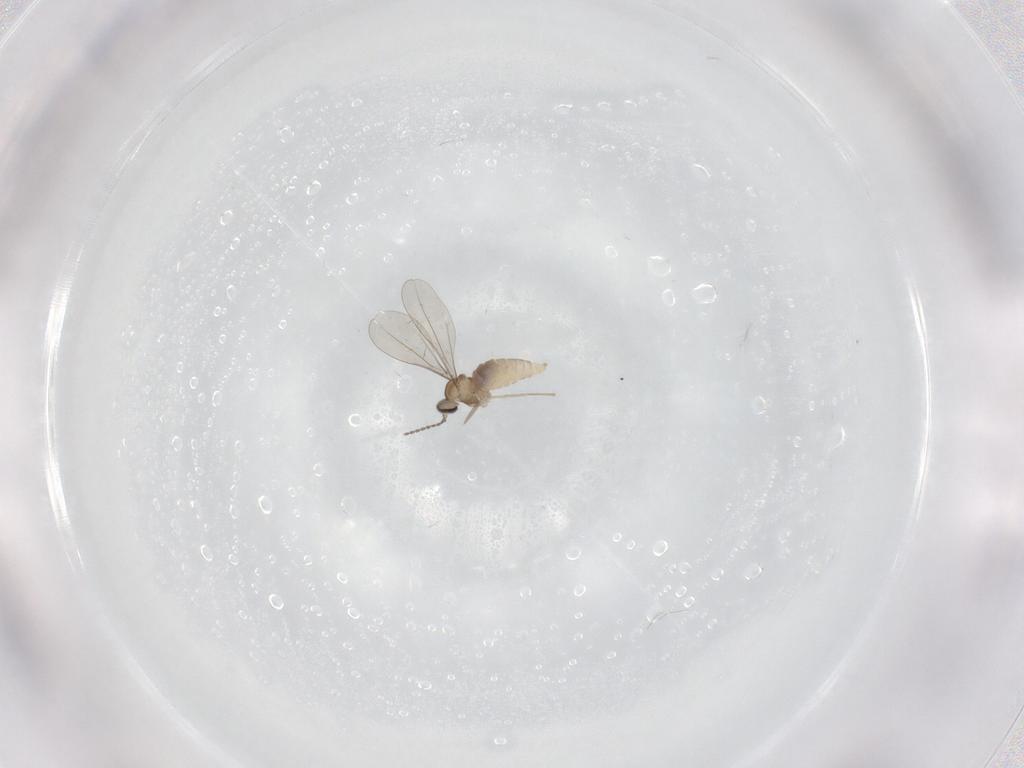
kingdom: Animalia
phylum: Arthropoda
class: Insecta
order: Diptera
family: Cecidomyiidae
